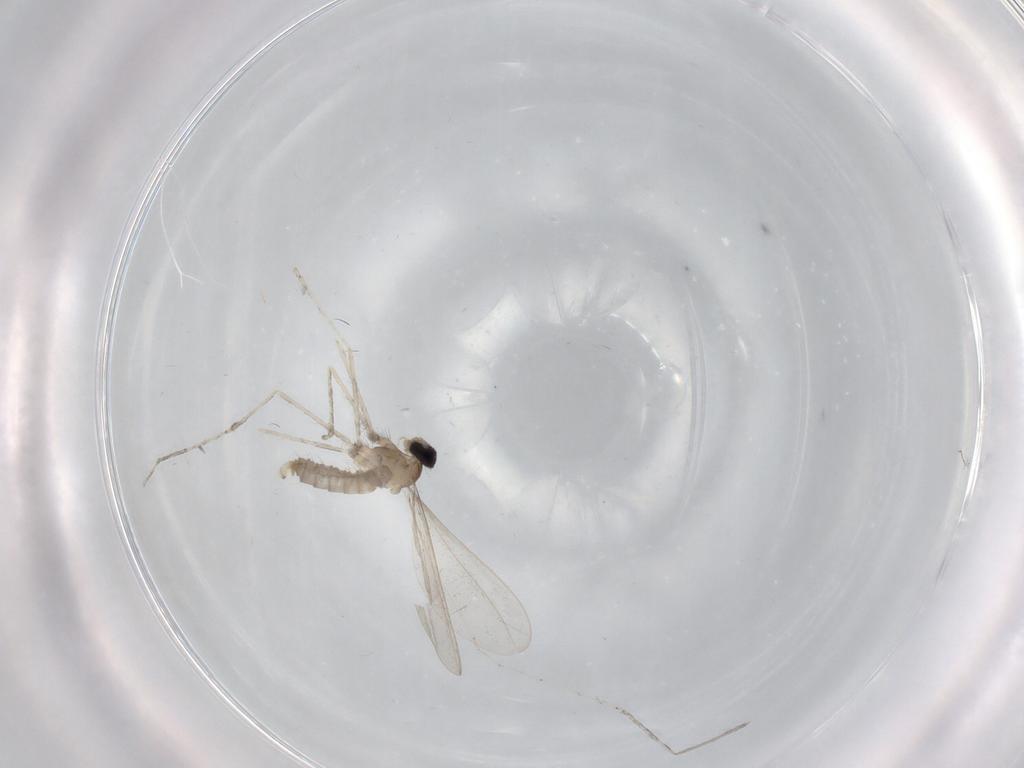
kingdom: Animalia
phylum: Arthropoda
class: Insecta
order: Diptera
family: Cecidomyiidae
